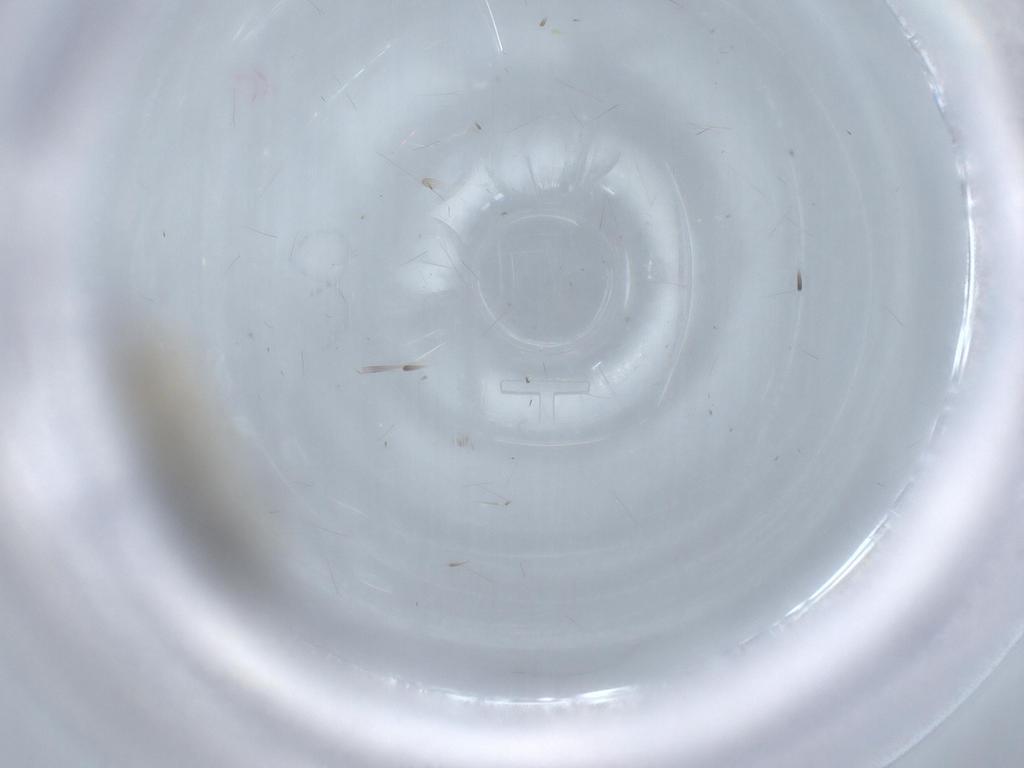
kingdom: Animalia
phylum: Arthropoda
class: Insecta
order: Lepidoptera
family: Tineidae
